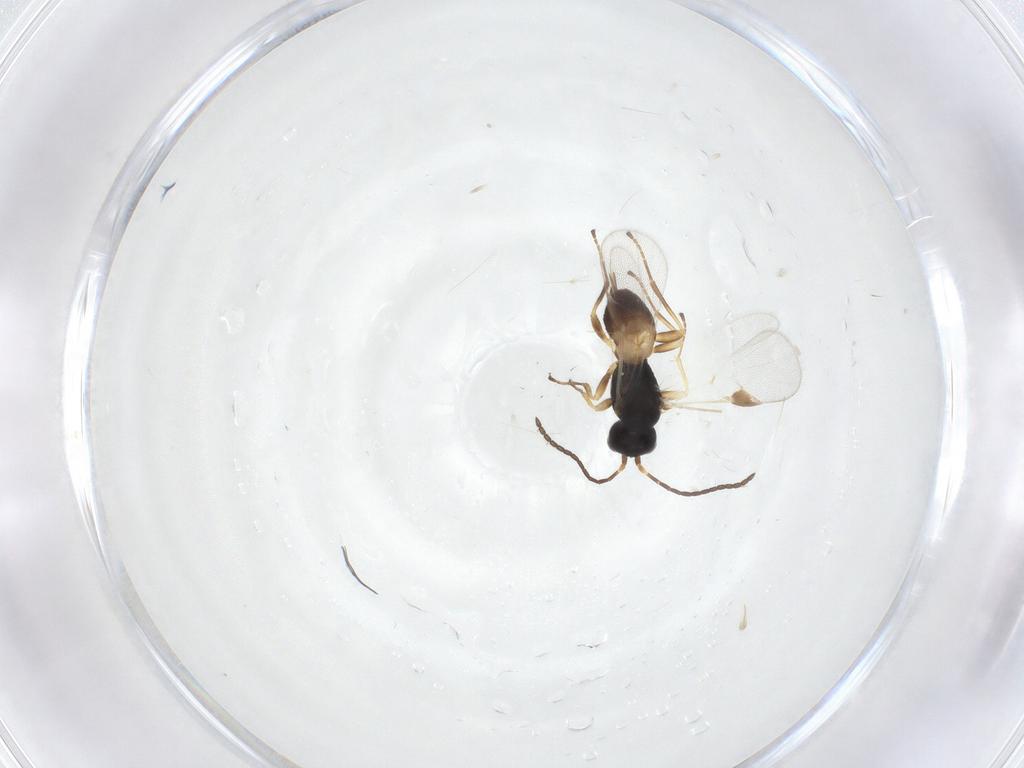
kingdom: Animalia
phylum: Arthropoda
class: Insecta
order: Hymenoptera
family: Braconidae
